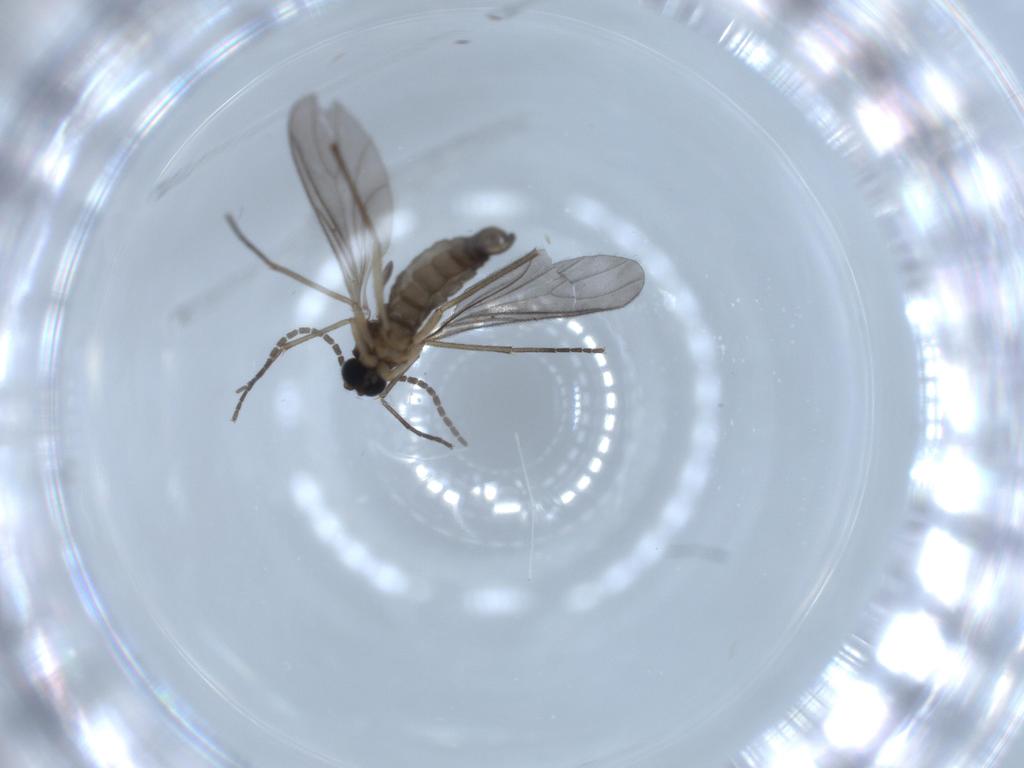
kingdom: Animalia
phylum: Arthropoda
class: Insecta
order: Diptera
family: Sciaridae
